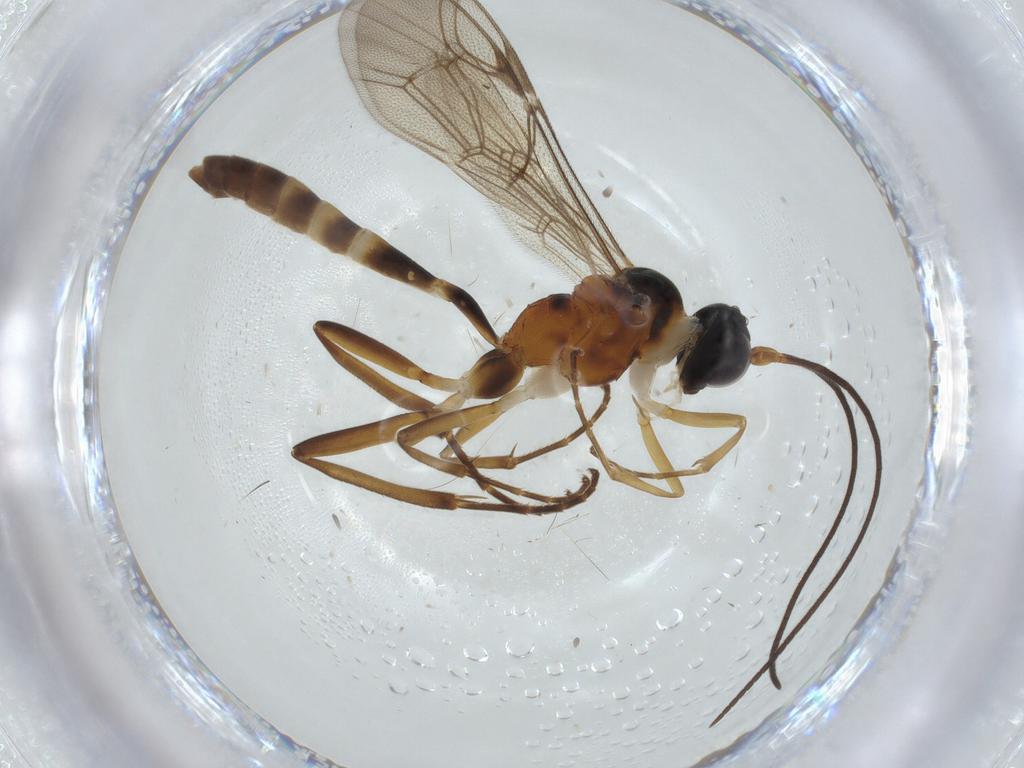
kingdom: Animalia
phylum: Arthropoda
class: Insecta
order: Hymenoptera
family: Ichneumonidae
